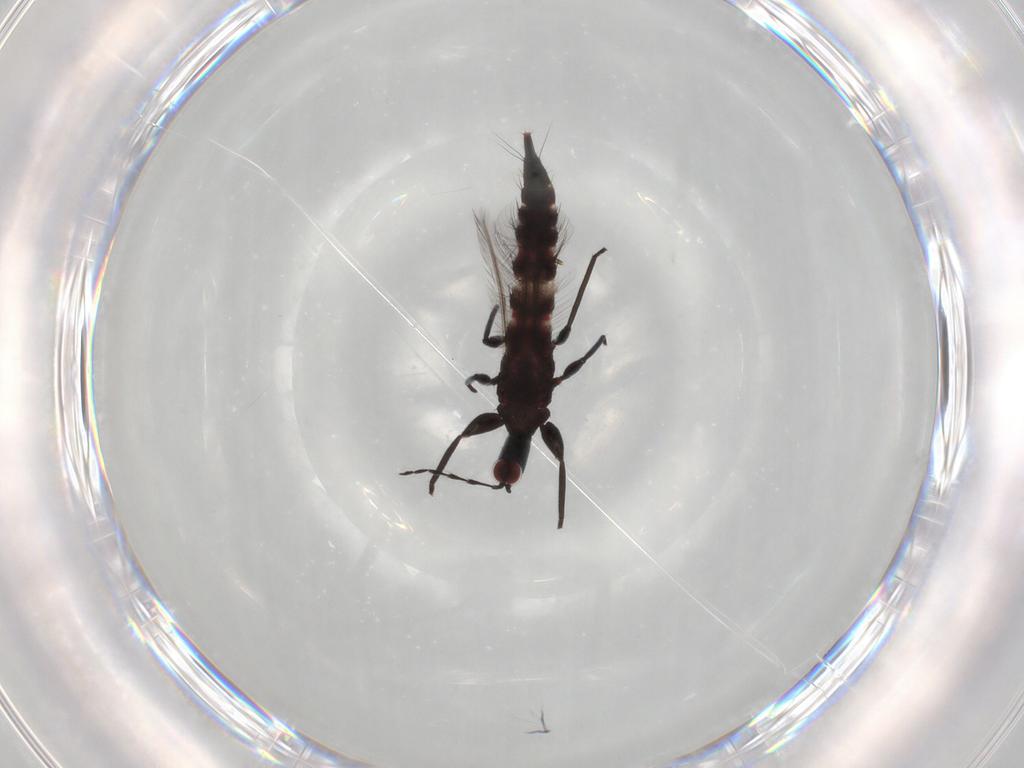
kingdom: Animalia
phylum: Arthropoda
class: Insecta
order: Thysanoptera
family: Phlaeothripidae
